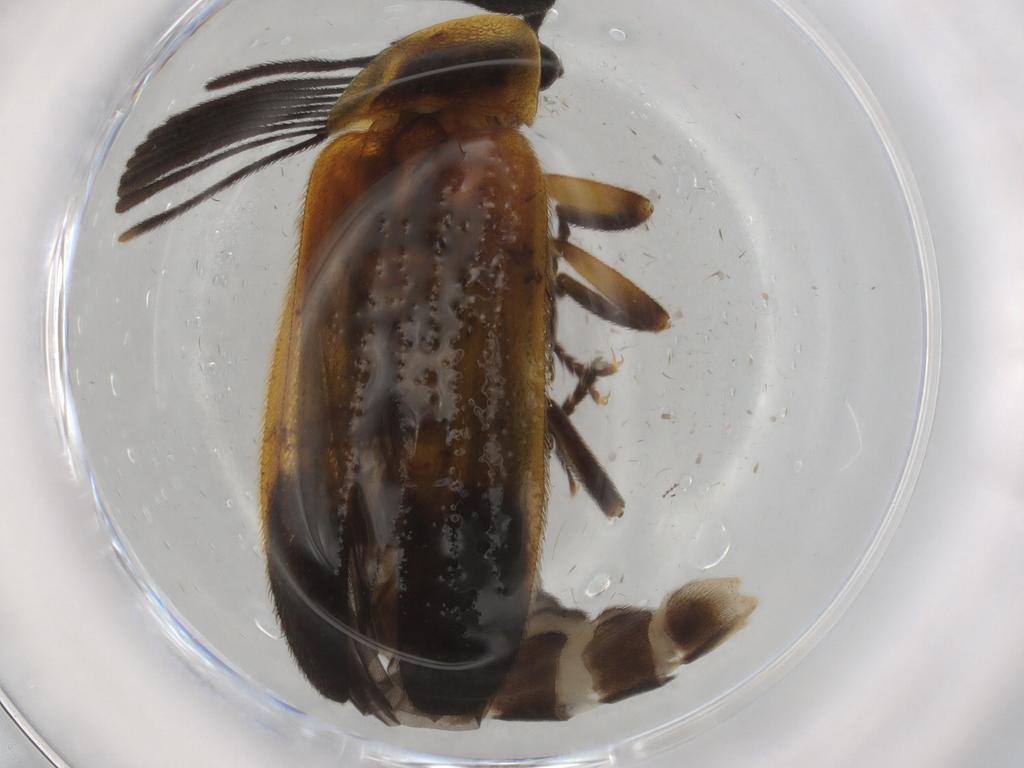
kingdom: Animalia
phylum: Arthropoda
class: Insecta
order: Coleoptera
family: Lampyridae
